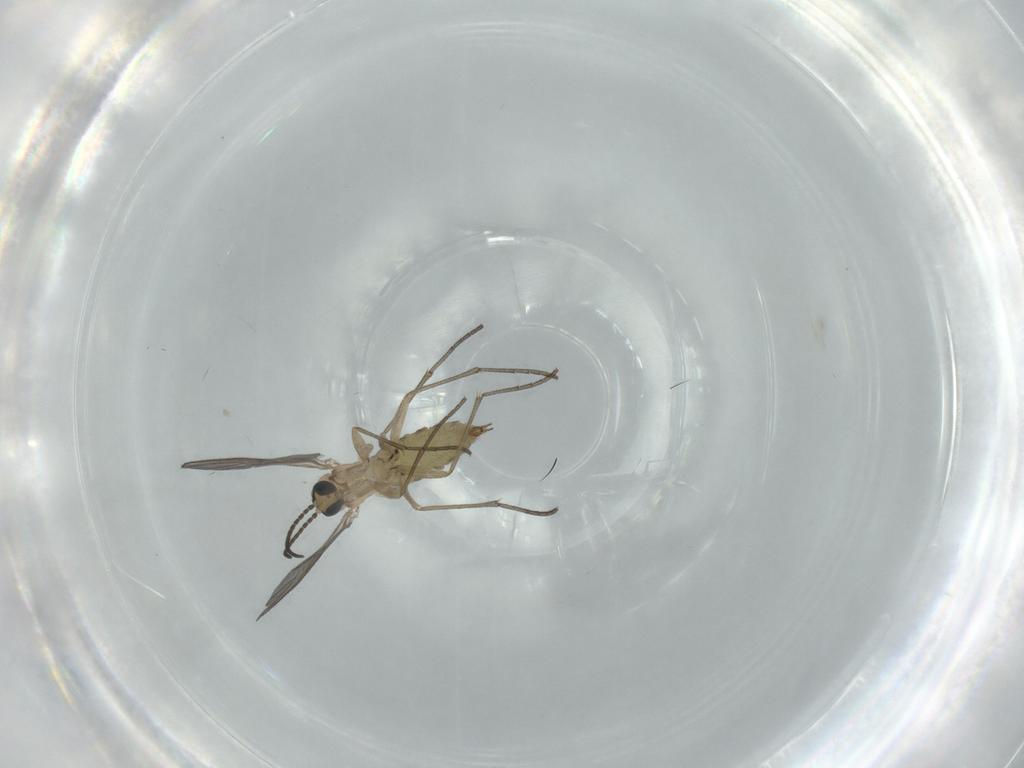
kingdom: Animalia
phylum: Arthropoda
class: Insecta
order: Diptera
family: Sciaridae
